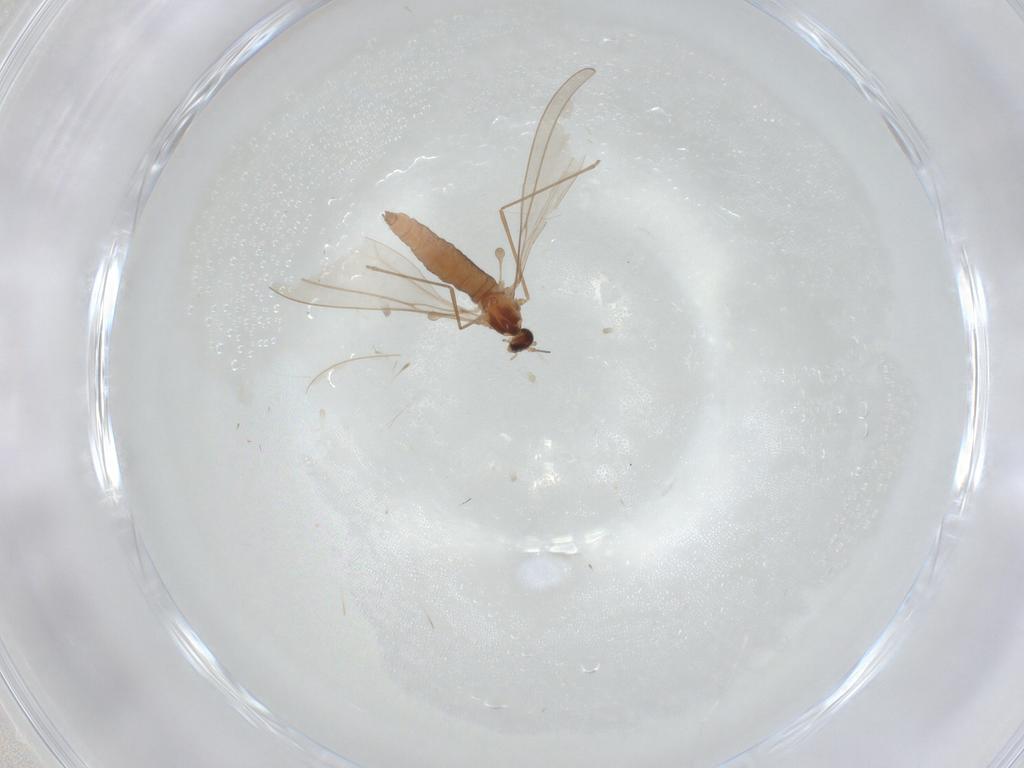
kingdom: Animalia
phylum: Arthropoda
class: Insecta
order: Diptera
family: Cecidomyiidae
